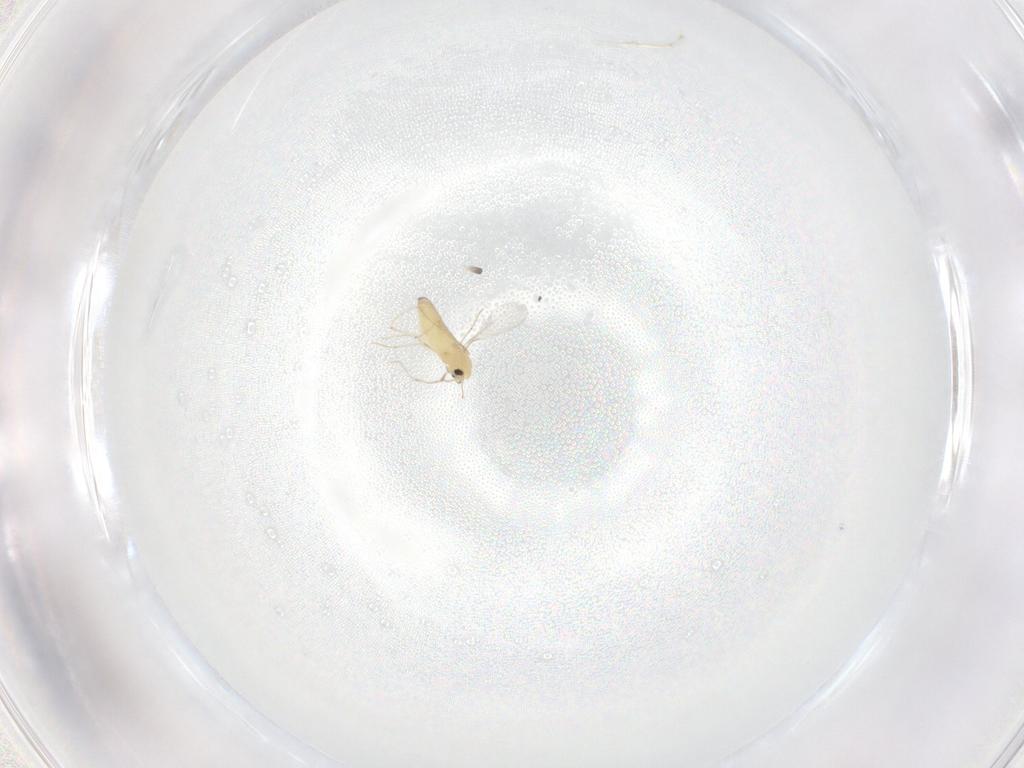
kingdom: Animalia
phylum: Arthropoda
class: Insecta
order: Diptera
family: Chironomidae
